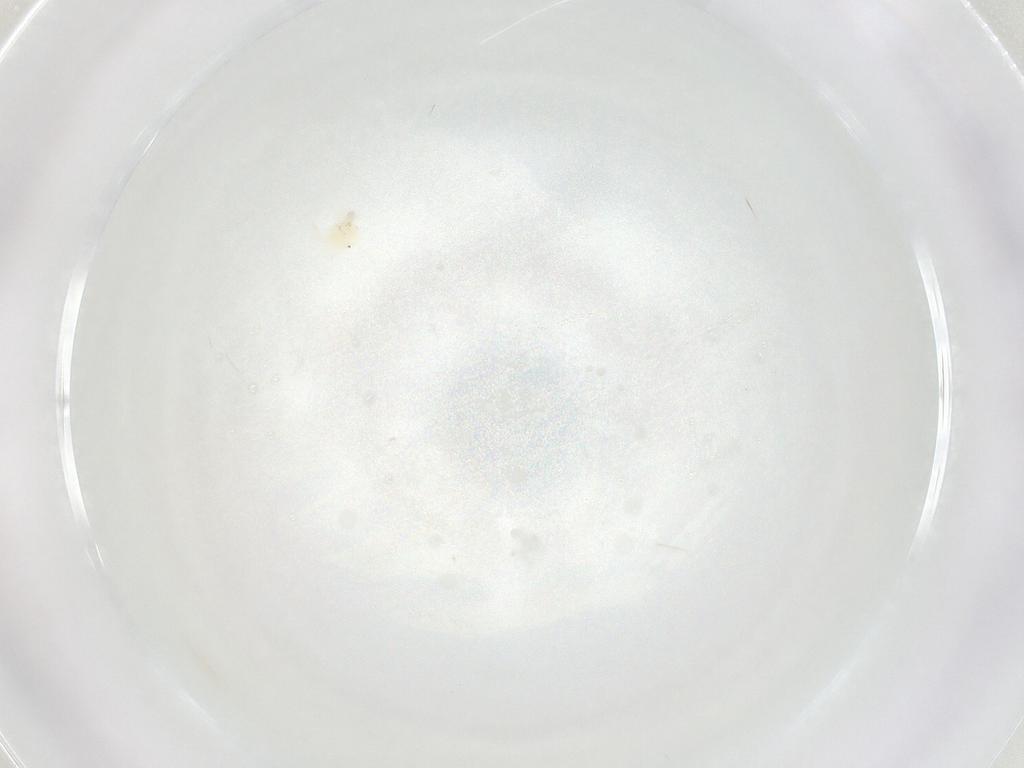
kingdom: Animalia
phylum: Arthropoda
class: Arachnida
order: Trombidiformes
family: Anystidae
